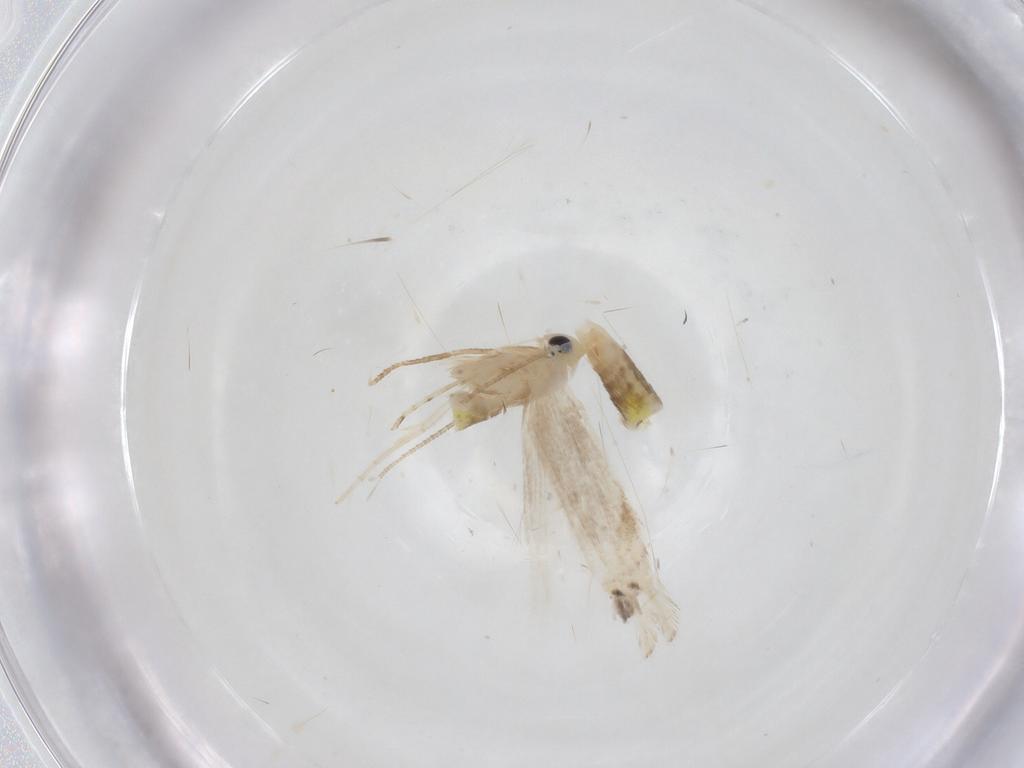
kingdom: Animalia
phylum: Arthropoda
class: Insecta
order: Lepidoptera
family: Lyonetiidae
